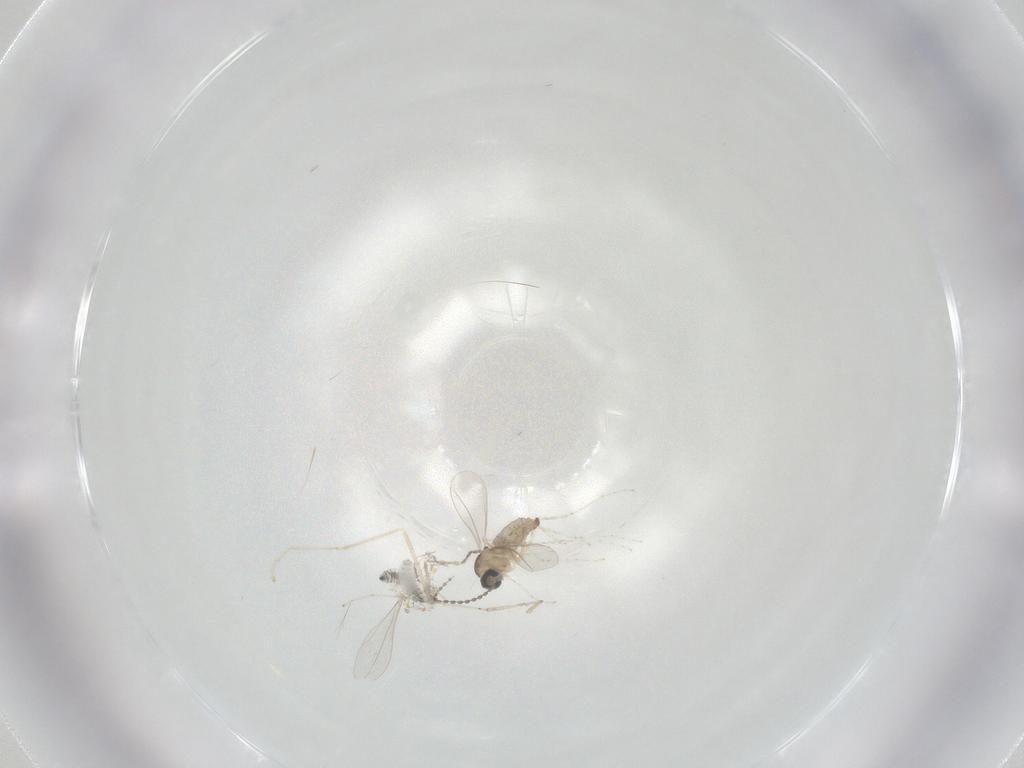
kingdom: Animalia
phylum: Arthropoda
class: Insecta
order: Diptera
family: Cecidomyiidae
